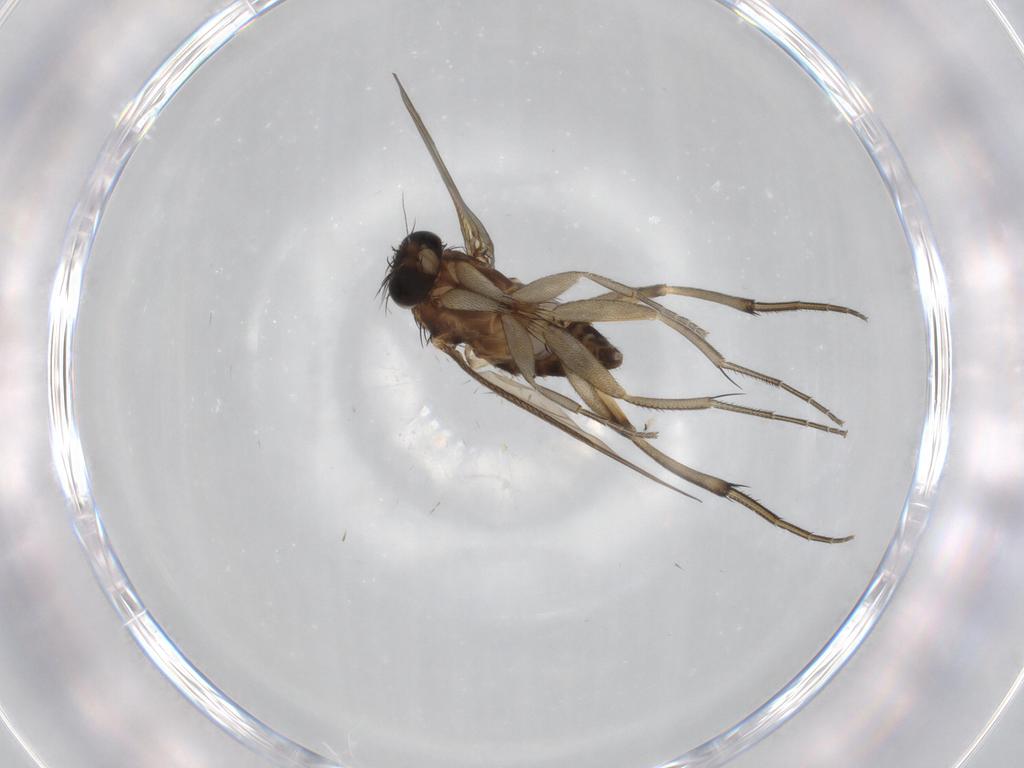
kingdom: Animalia
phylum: Arthropoda
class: Insecta
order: Diptera
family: Phoridae
